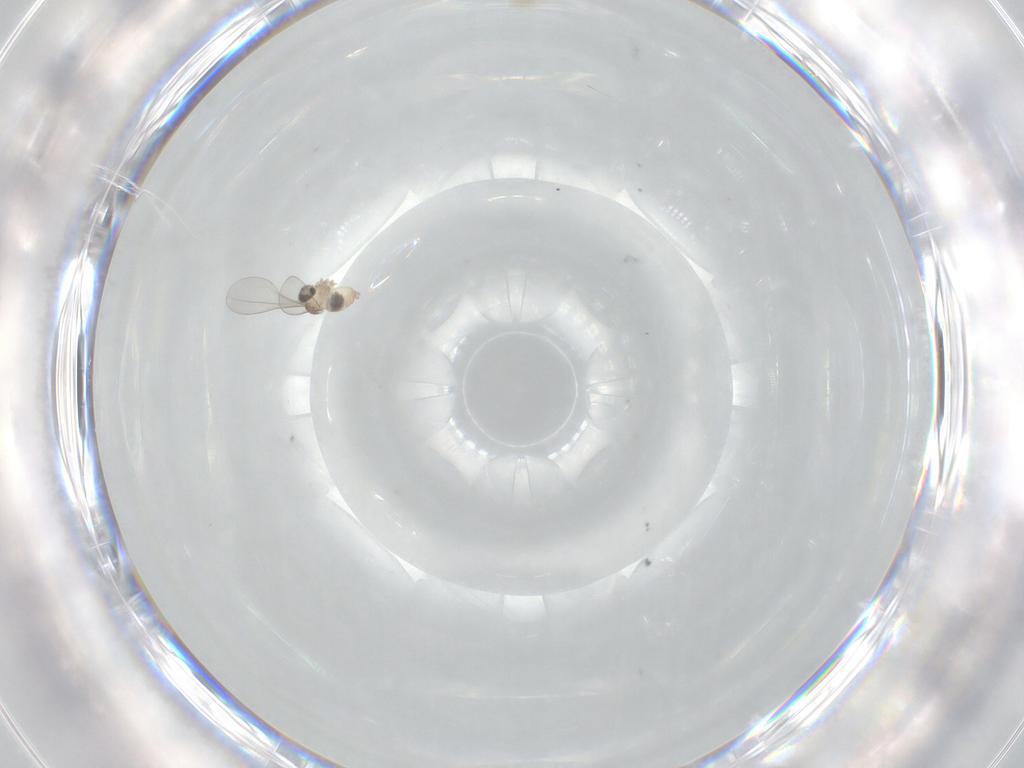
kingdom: Animalia
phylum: Arthropoda
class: Insecta
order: Diptera
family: Cecidomyiidae
